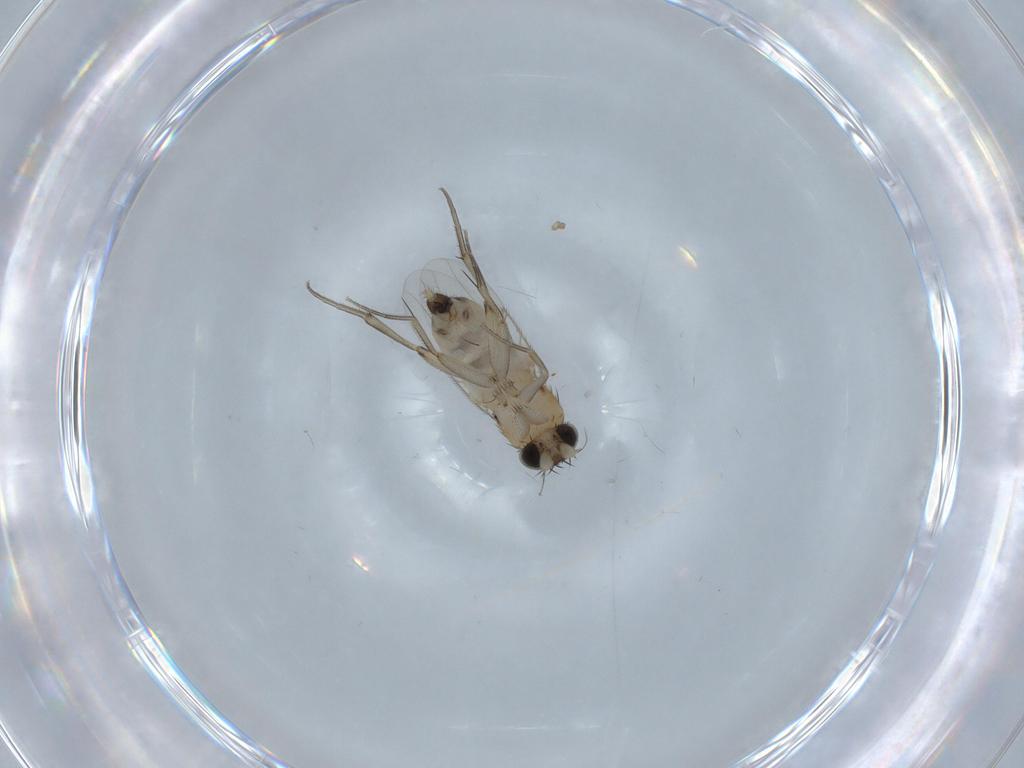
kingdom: Animalia
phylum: Arthropoda
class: Insecta
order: Diptera
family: Phoridae
